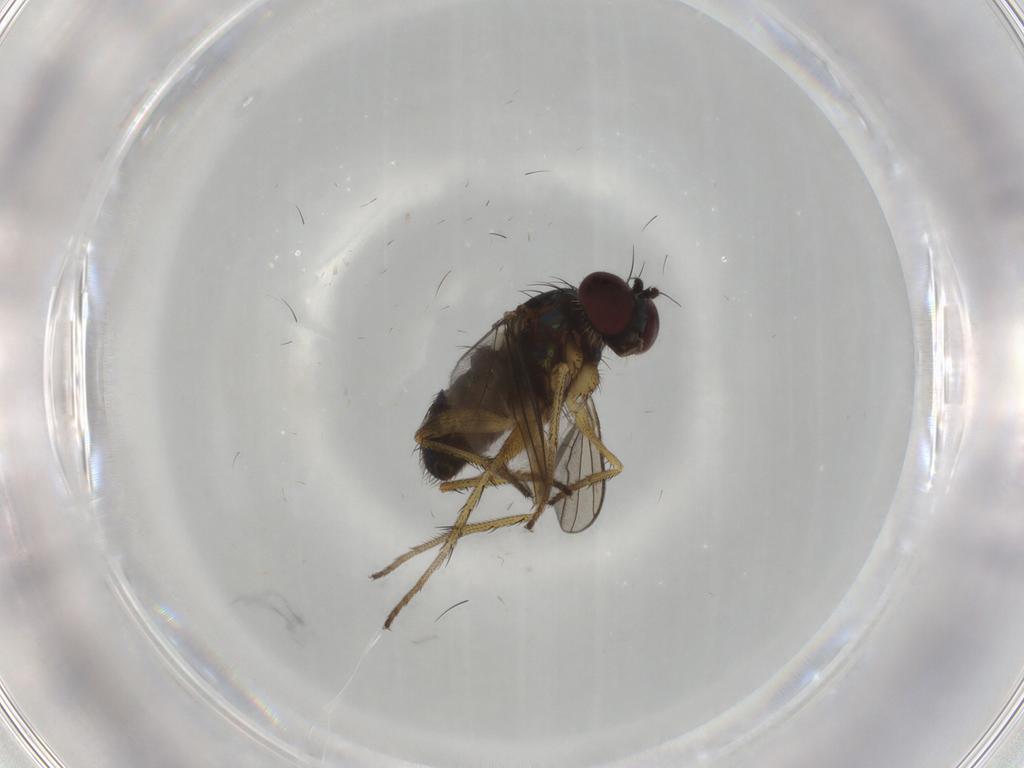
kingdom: Animalia
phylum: Arthropoda
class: Insecta
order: Diptera
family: Dolichopodidae
